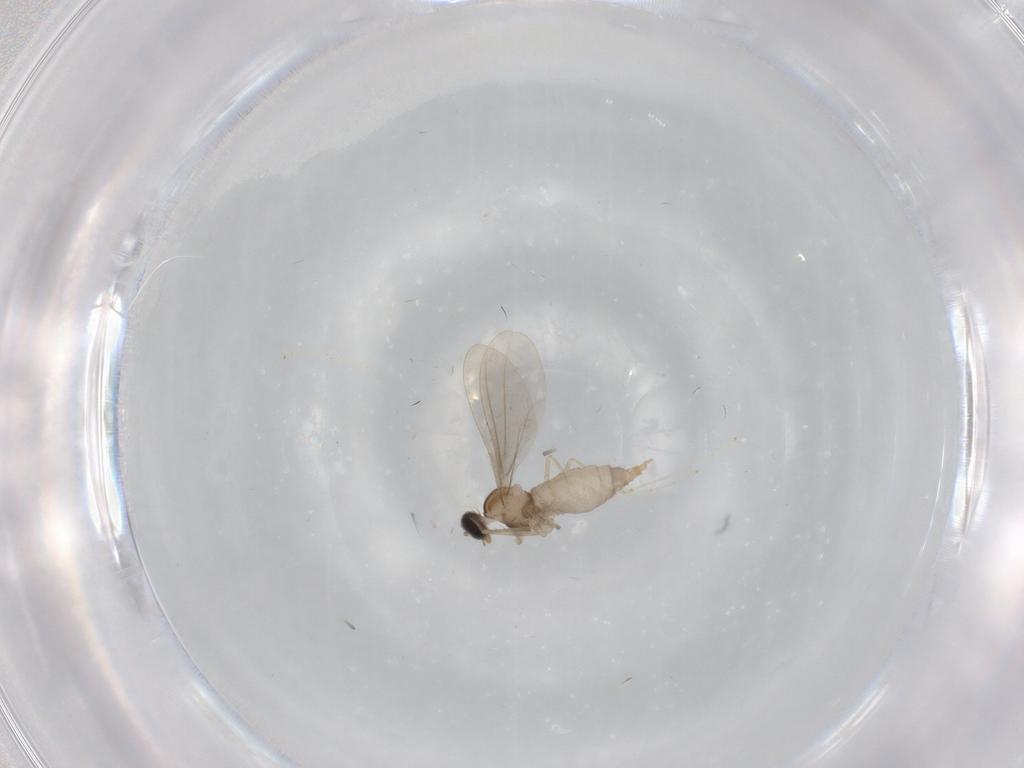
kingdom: Animalia
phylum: Arthropoda
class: Insecta
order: Diptera
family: Cecidomyiidae
